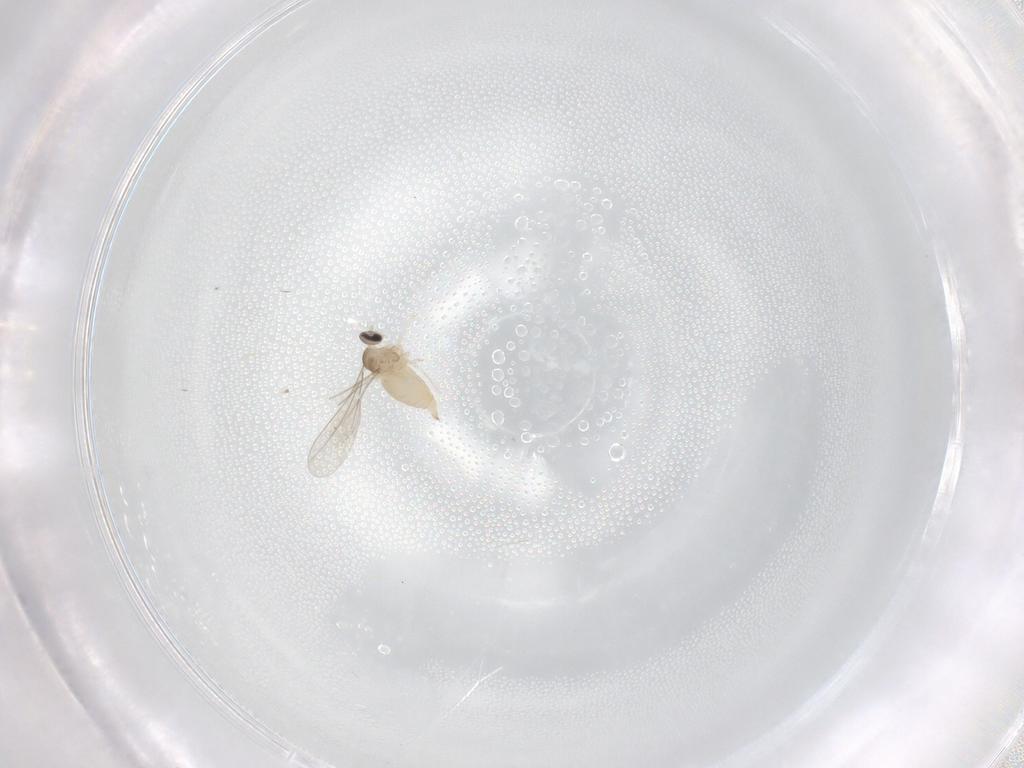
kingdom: Animalia
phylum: Arthropoda
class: Insecta
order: Diptera
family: Cecidomyiidae
